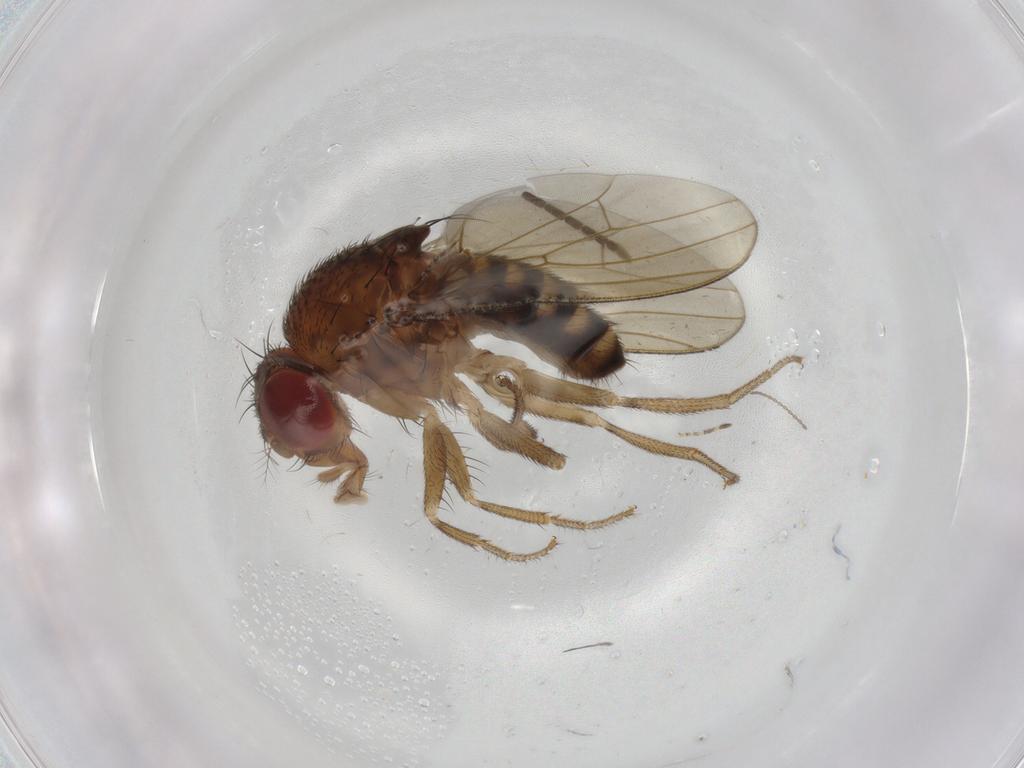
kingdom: Animalia
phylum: Arthropoda
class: Insecta
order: Diptera
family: Drosophilidae
